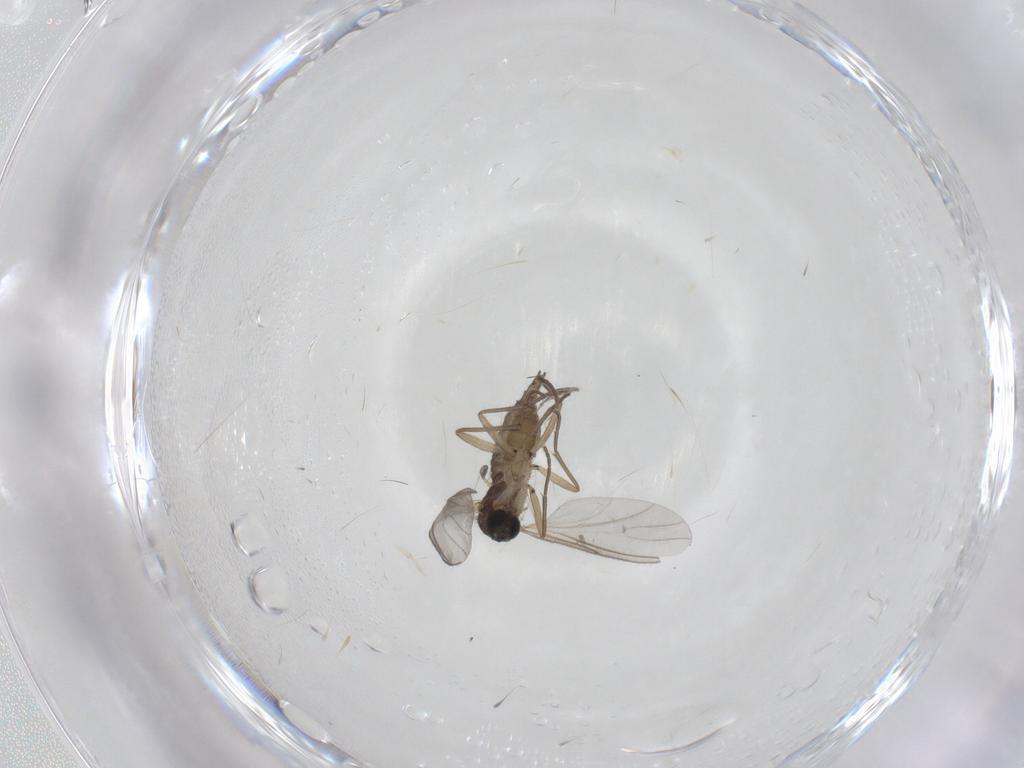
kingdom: Animalia
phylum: Arthropoda
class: Insecta
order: Diptera
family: Sciaridae
